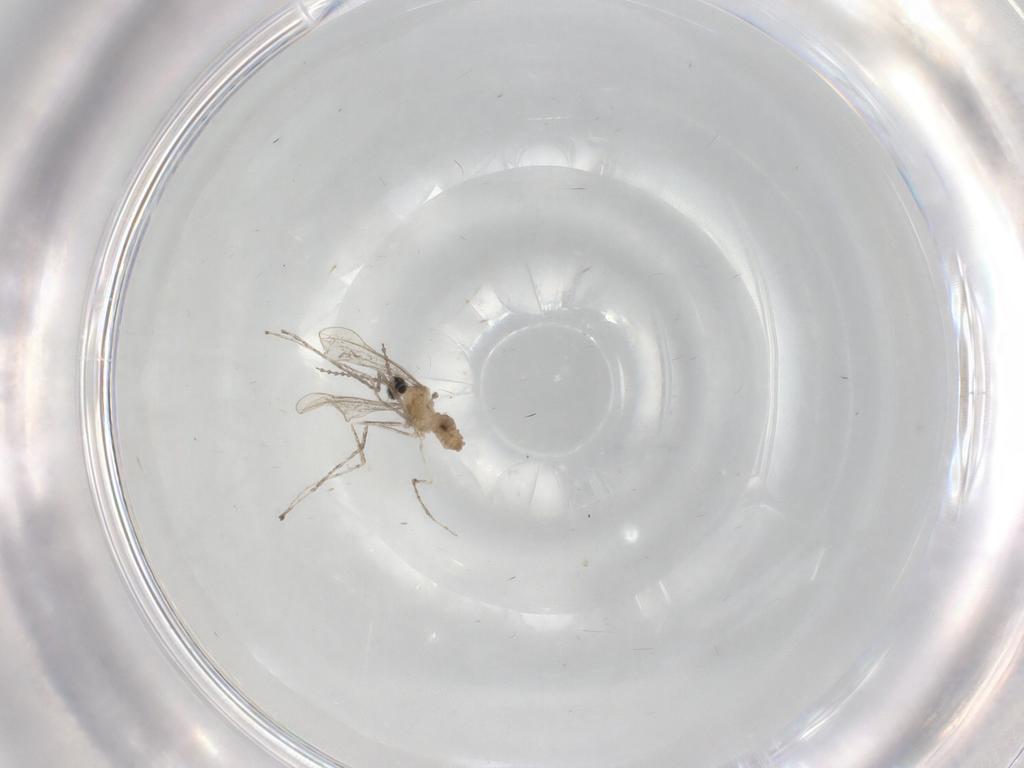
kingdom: Animalia
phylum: Arthropoda
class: Insecta
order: Diptera
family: Cecidomyiidae
